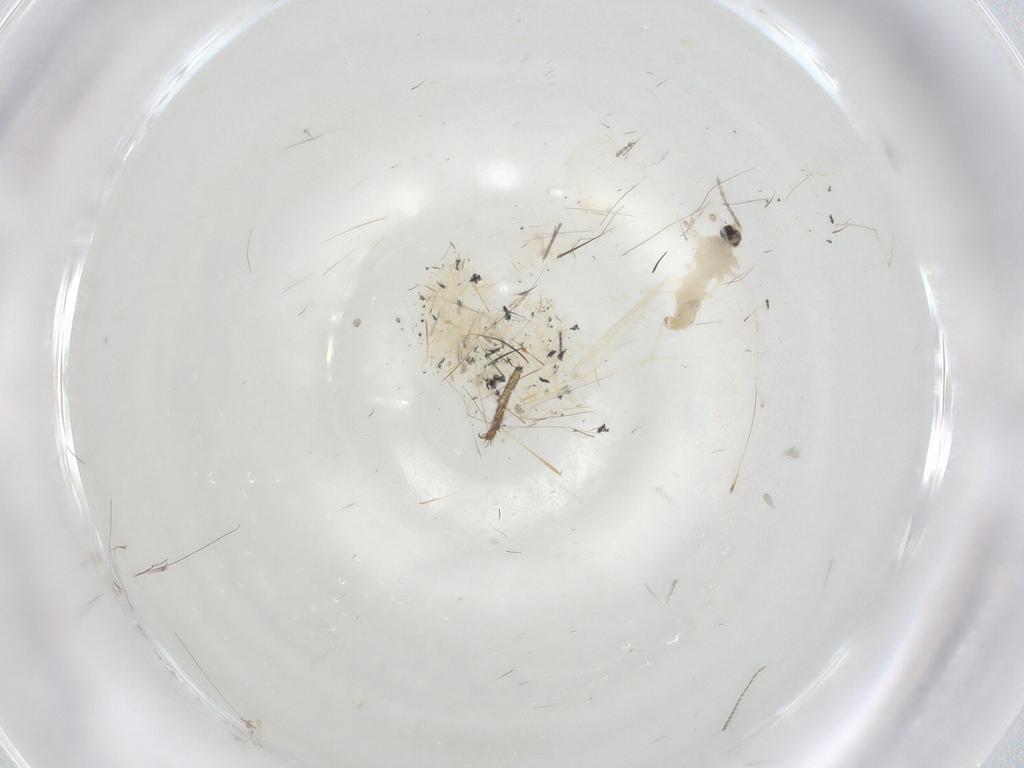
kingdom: Animalia
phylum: Arthropoda
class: Insecta
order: Diptera
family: Ceratopogonidae
